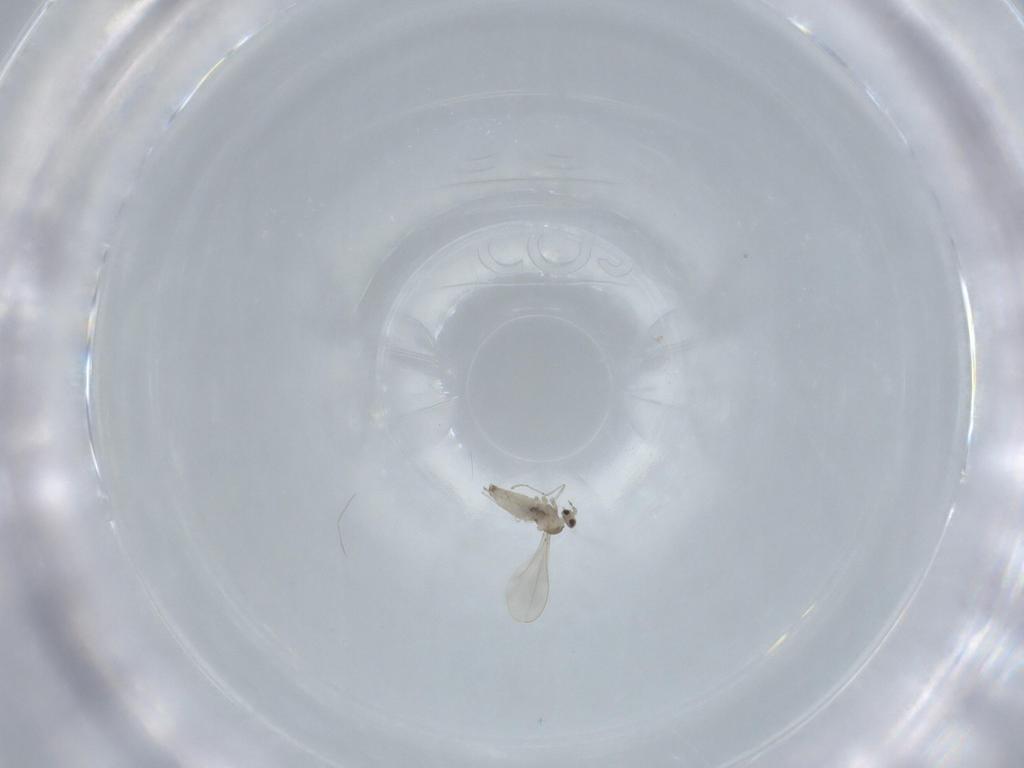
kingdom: Animalia
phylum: Arthropoda
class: Insecta
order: Diptera
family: Cecidomyiidae
